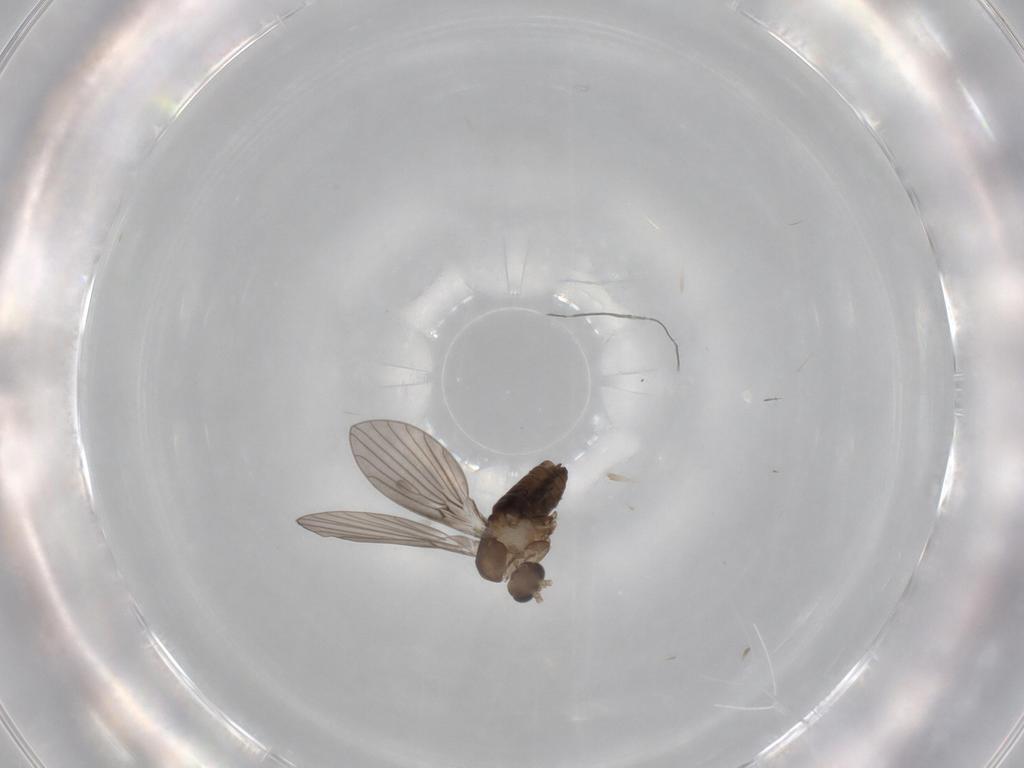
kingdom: Animalia
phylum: Arthropoda
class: Insecta
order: Diptera
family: Psychodidae
